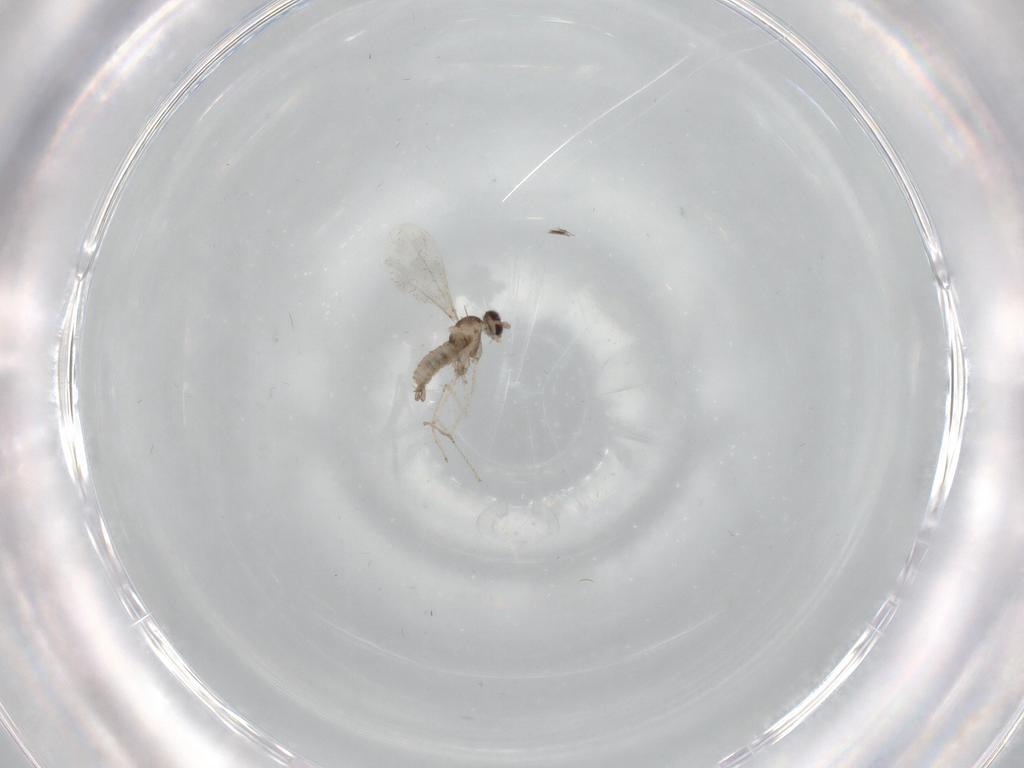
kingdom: Animalia
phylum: Arthropoda
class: Insecta
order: Diptera
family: Cecidomyiidae
